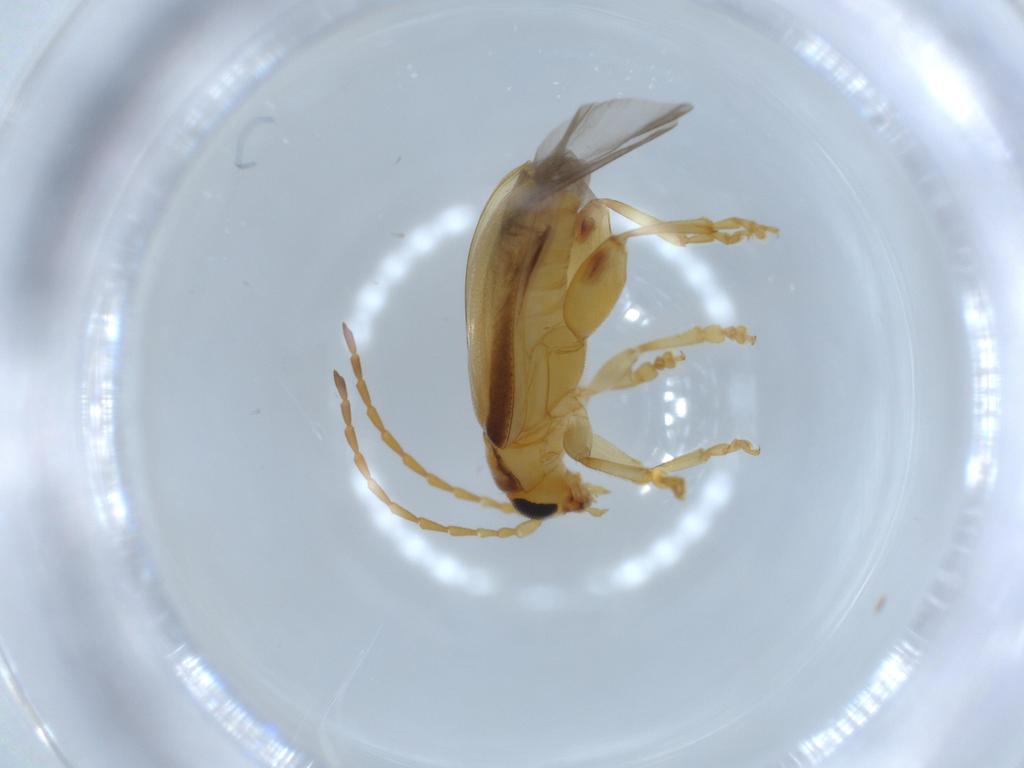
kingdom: Animalia
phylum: Arthropoda
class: Insecta
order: Coleoptera
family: Chrysomelidae
